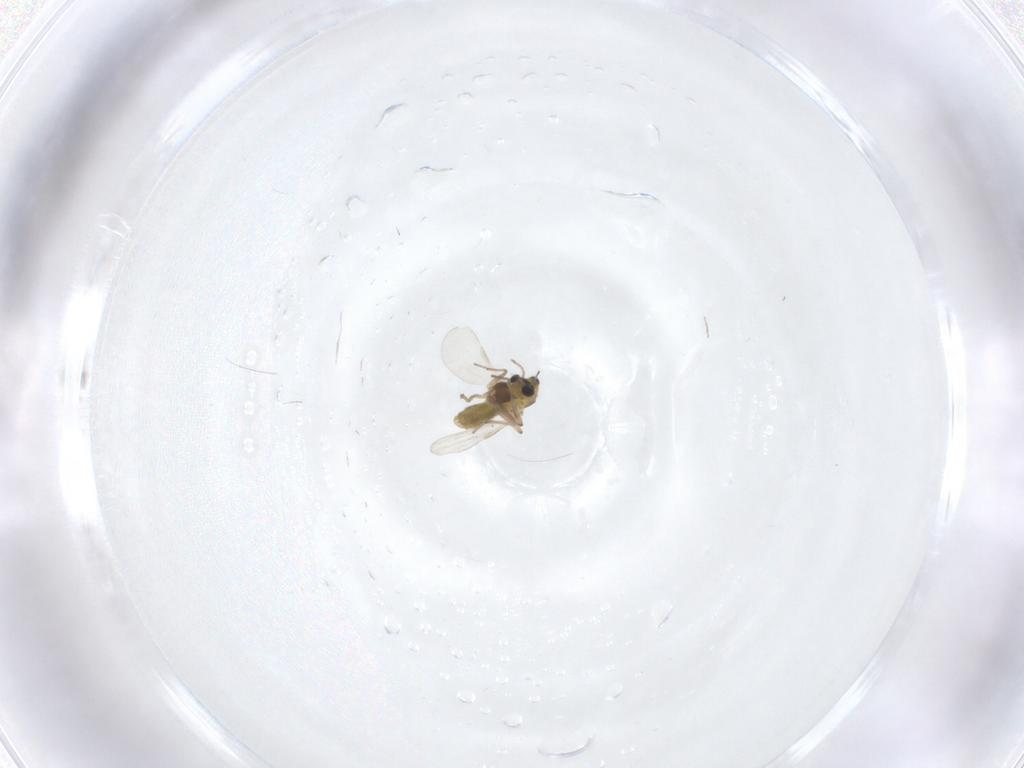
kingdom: Animalia
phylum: Arthropoda
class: Insecta
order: Diptera
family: Chironomidae
